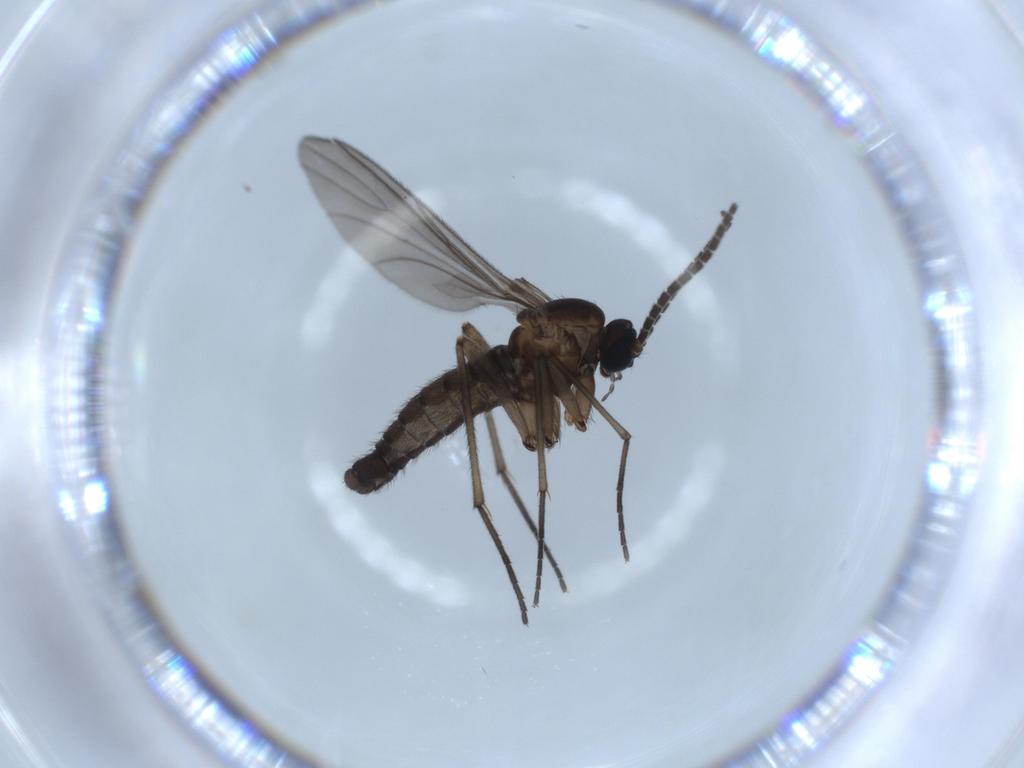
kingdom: Animalia
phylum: Arthropoda
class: Insecta
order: Diptera
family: Sciaridae
